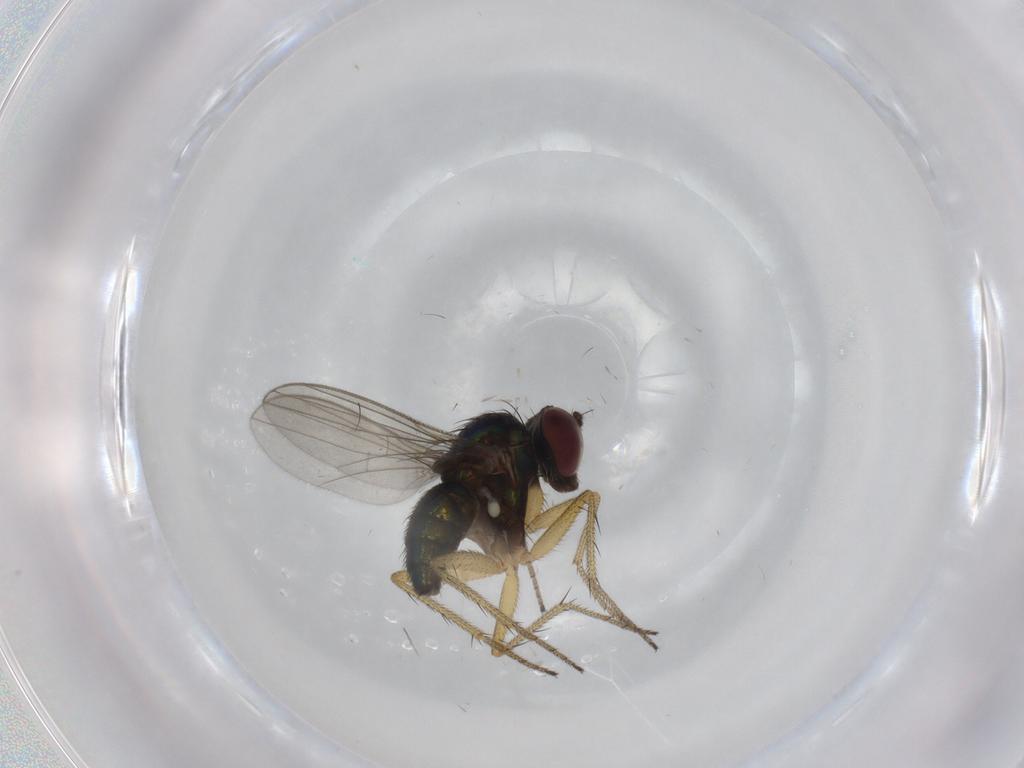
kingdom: Animalia
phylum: Arthropoda
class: Insecta
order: Diptera
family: Dolichopodidae
